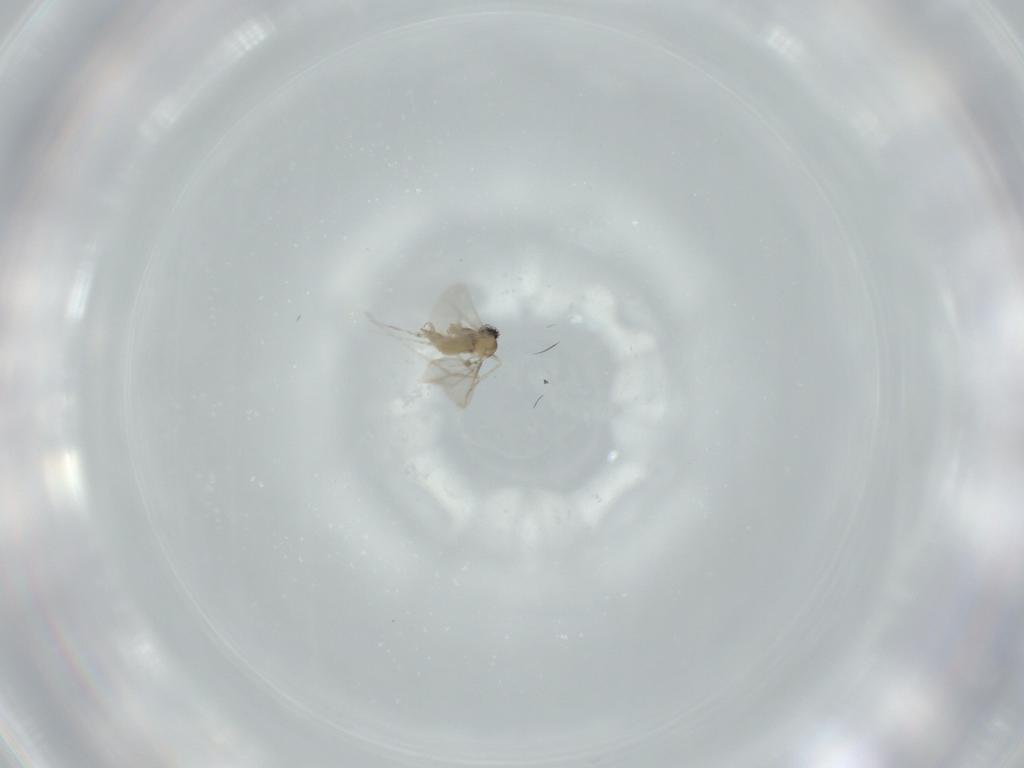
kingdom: Animalia
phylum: Arthropoda
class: Insecta
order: Diptera
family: Cecidomyiidae
